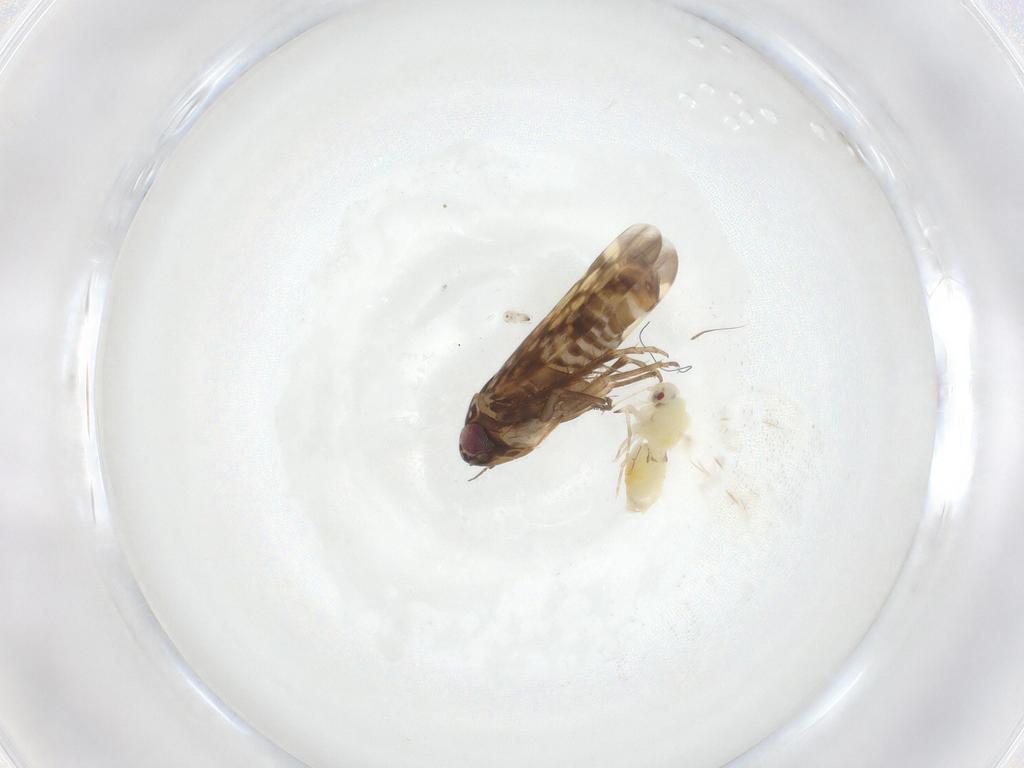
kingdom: Animalia
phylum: Arthropoda
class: Insecta
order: Hemiptera
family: Cicadellidae
